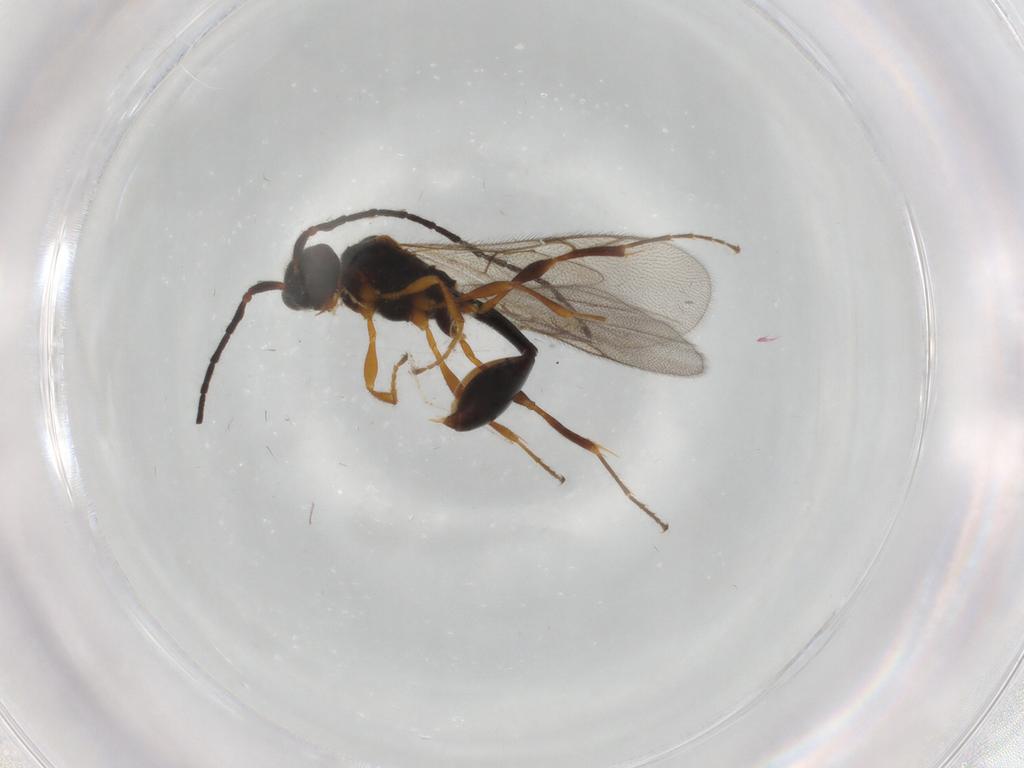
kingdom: Animalia
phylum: Arthropoda
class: Insecta
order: Hymenoptera
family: Diapriidae
